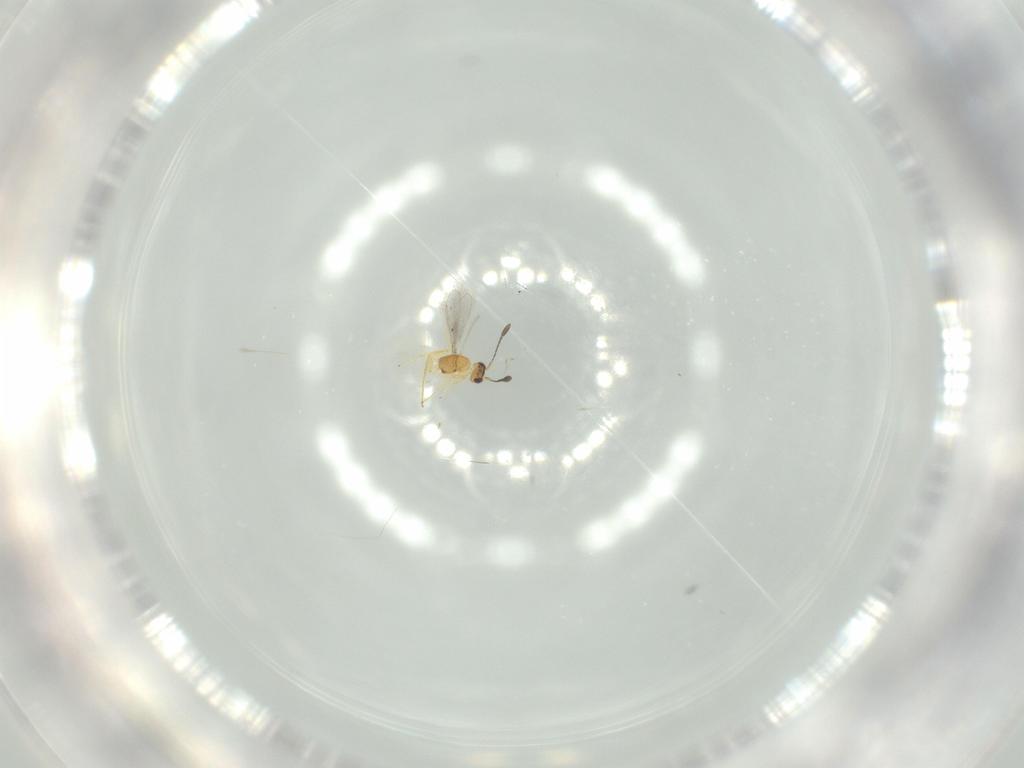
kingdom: Animalia
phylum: Arthropoda
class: Insecta
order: Hymenoptera
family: Mymaridae
